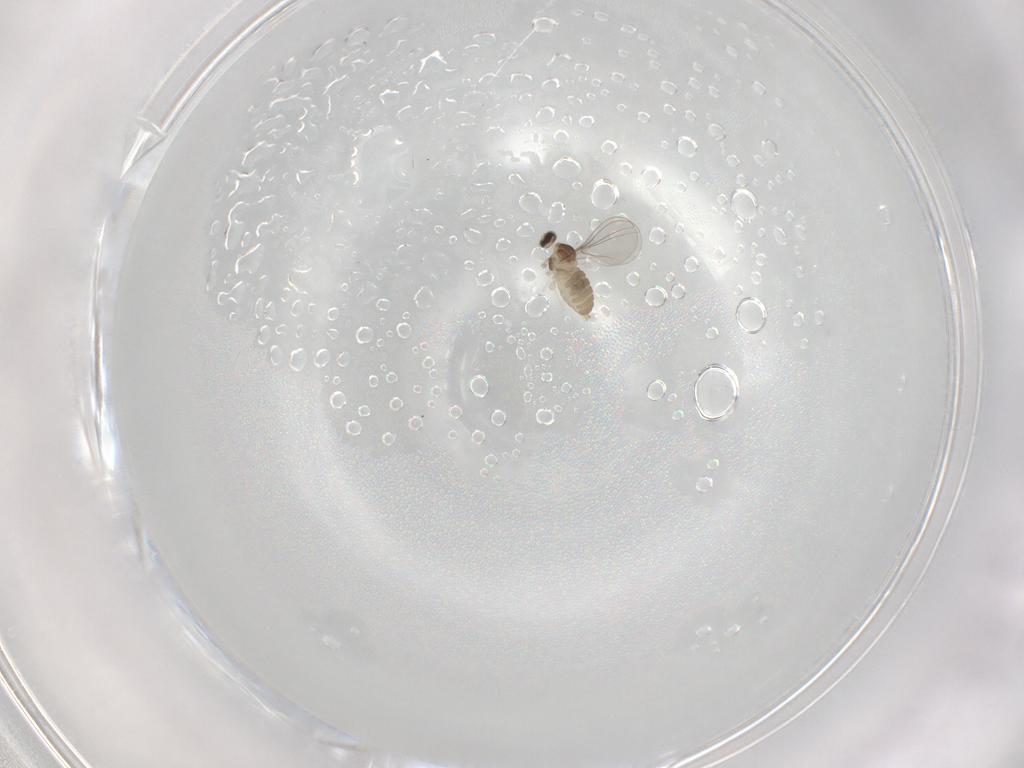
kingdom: Animalia
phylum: Arthropoda
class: Insecta
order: Diptera
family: Cecidomyiidae
